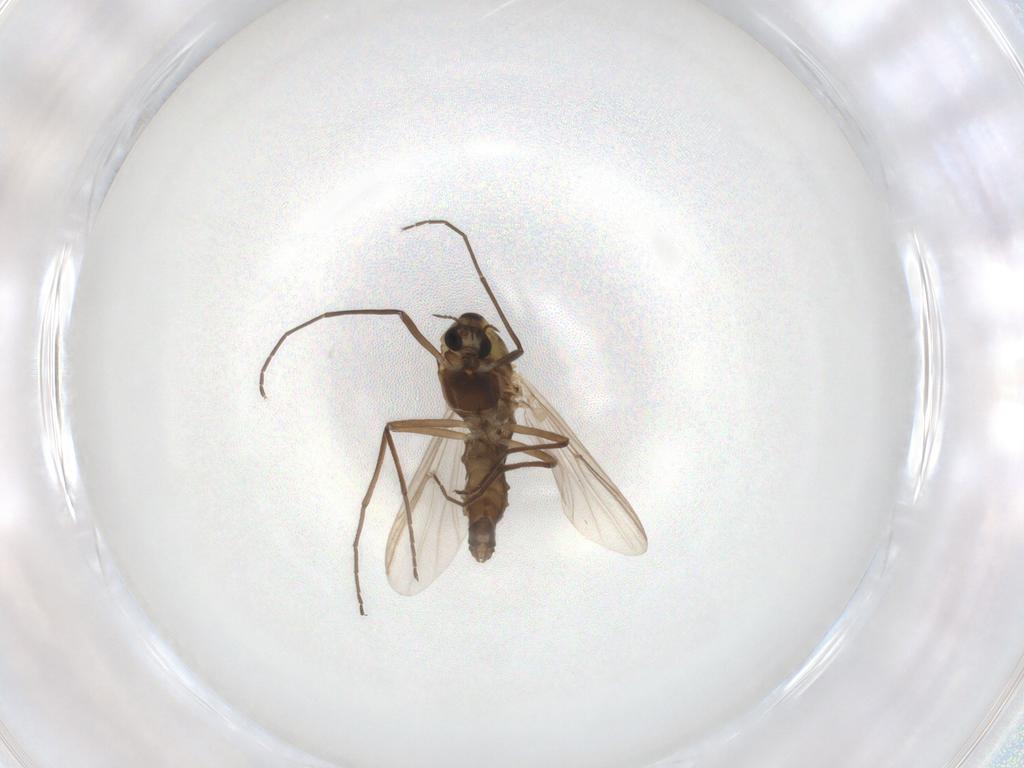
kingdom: Animalia
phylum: Arthropoda
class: Insecta
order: Diptera
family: Chironomidae
